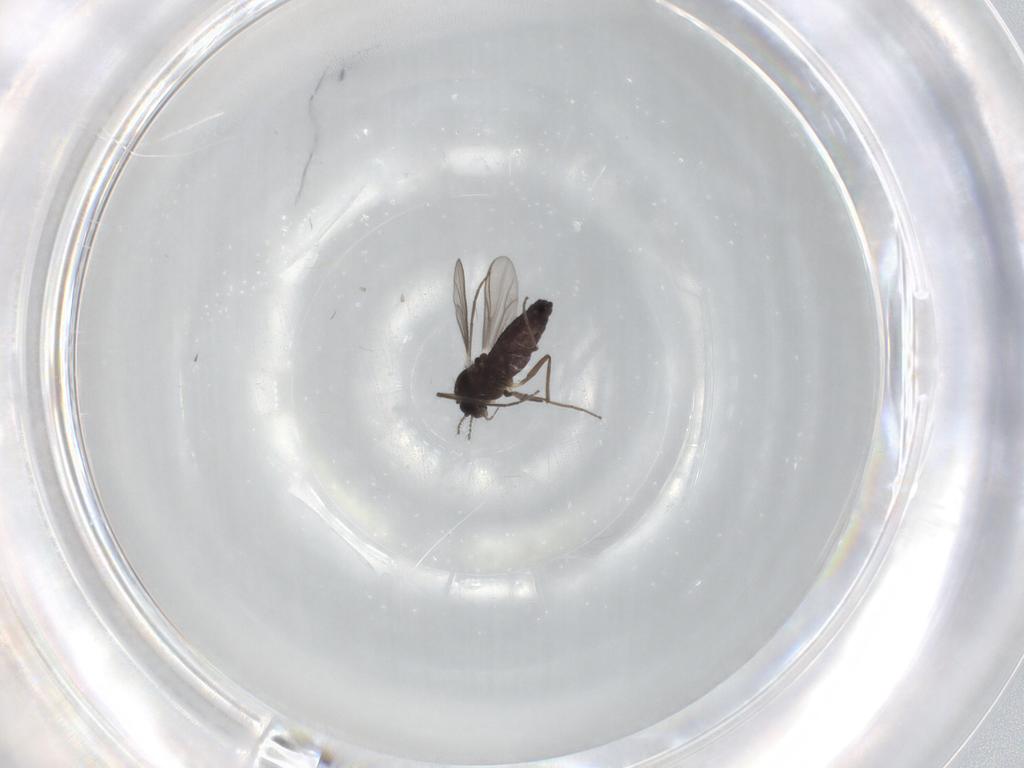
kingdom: Animalia
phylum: Arthropoda
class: Insecta
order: Diptera
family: Chironomidae
